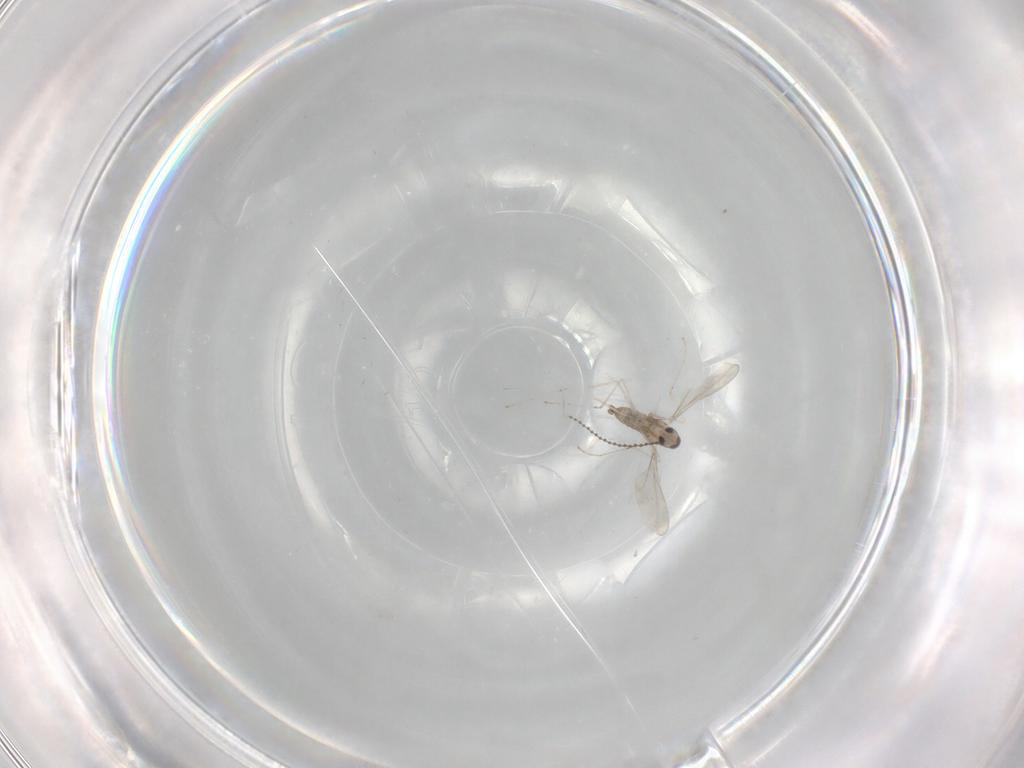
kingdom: Animalia
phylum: Arthropoda
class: Insecta
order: Diptera
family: Cecidomyiidae
